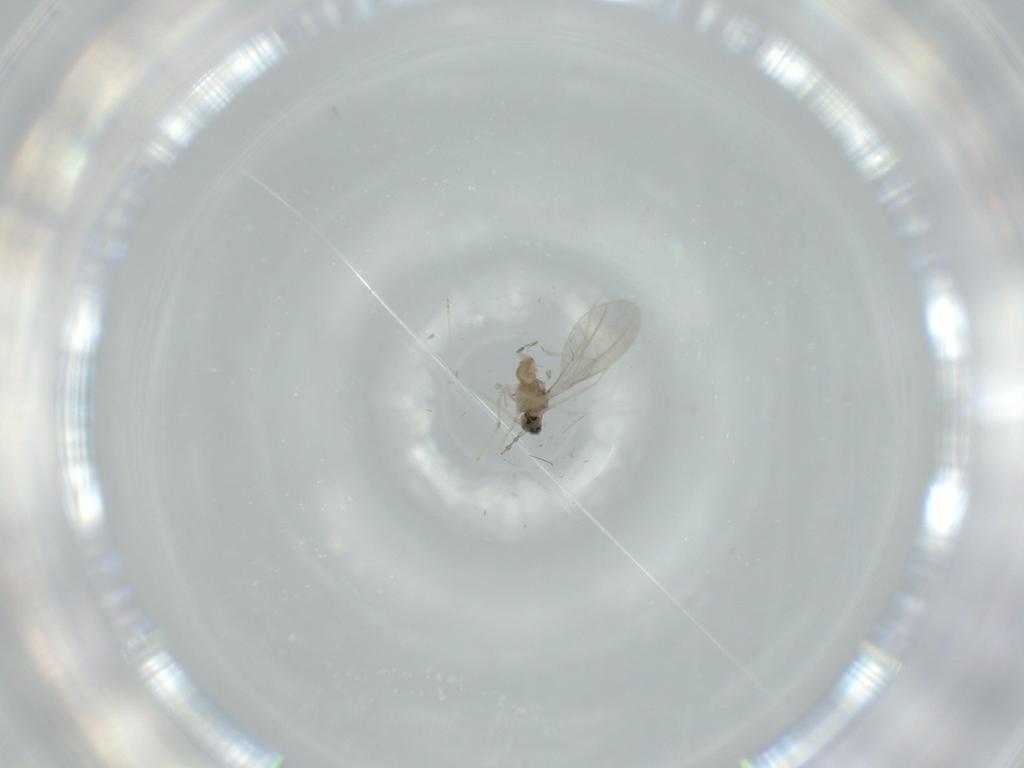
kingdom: Animalia
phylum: Arthropoda
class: Insecta
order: Diptera
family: Cecidomyiidae
